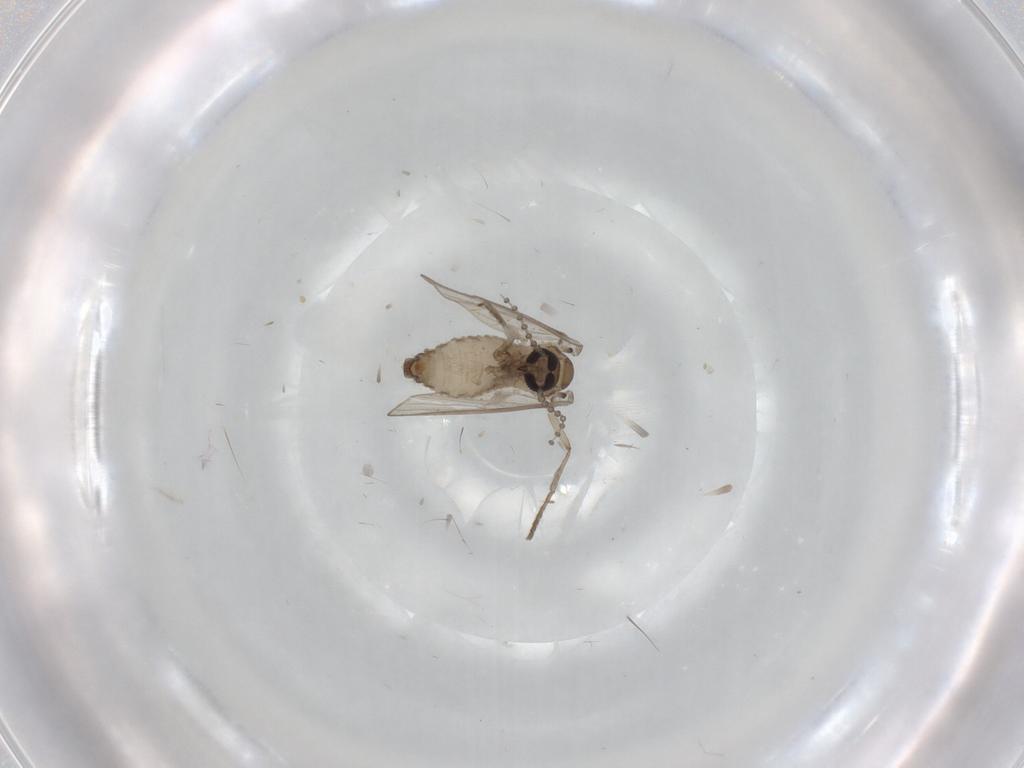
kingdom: Animalia
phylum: Arthropoda
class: Insecta
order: Diptera
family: Psychodidae
